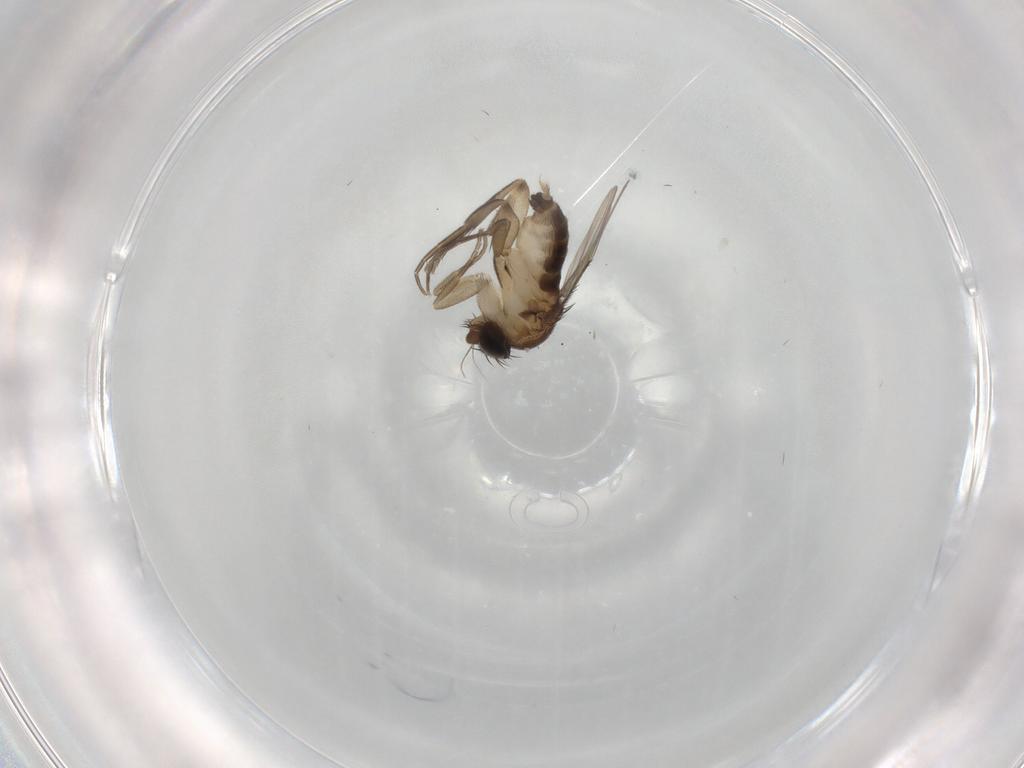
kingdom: Animalia
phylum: Arthropoda
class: Insecta
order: Diptera
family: Phoridae
